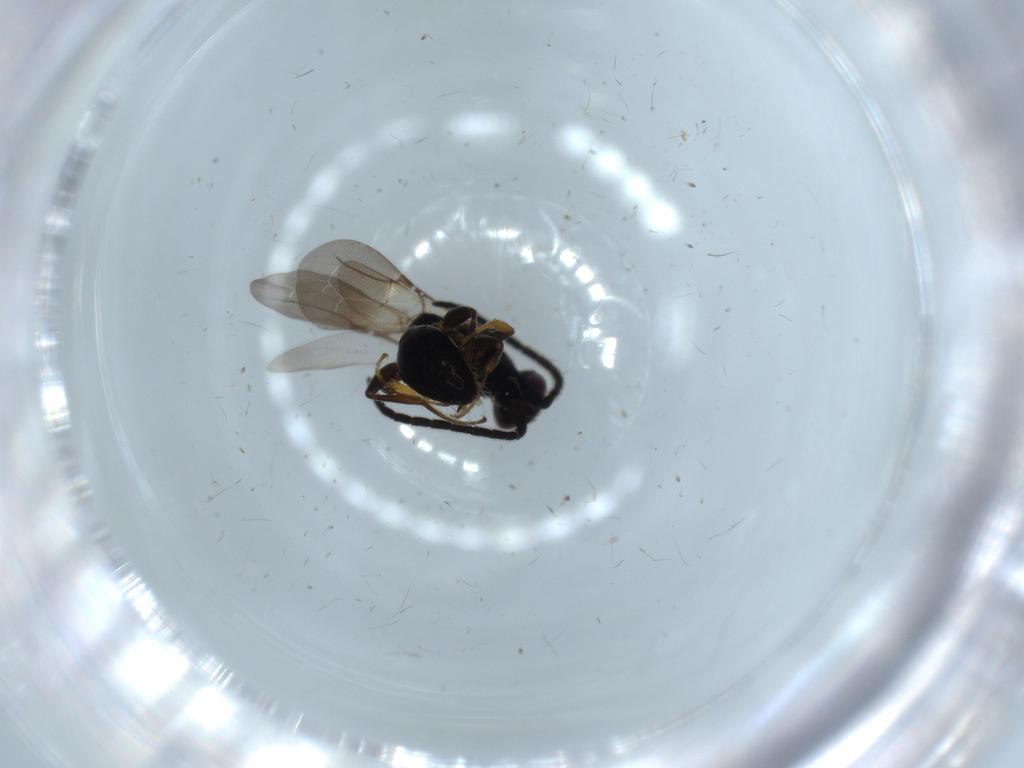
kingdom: Animalia
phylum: Arthropoda
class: Insecta
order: Hymenoptera
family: Bethylidae
